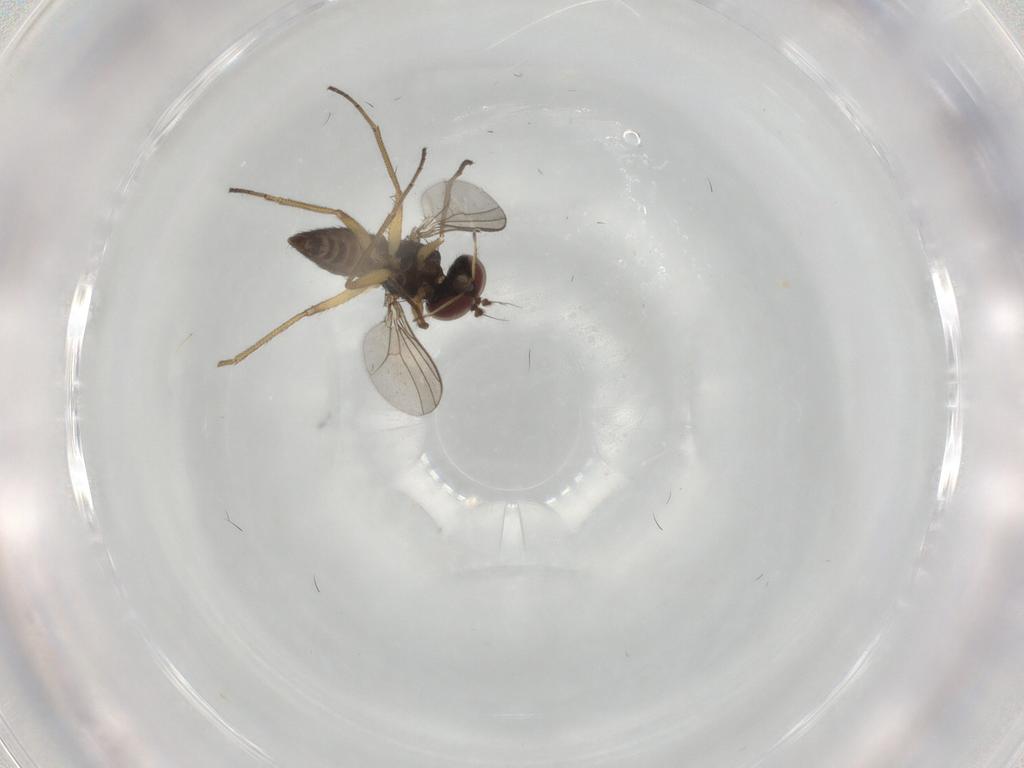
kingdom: Animalia
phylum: Arthropoda
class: Insecta
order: Diptera
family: Dolichopodidae
